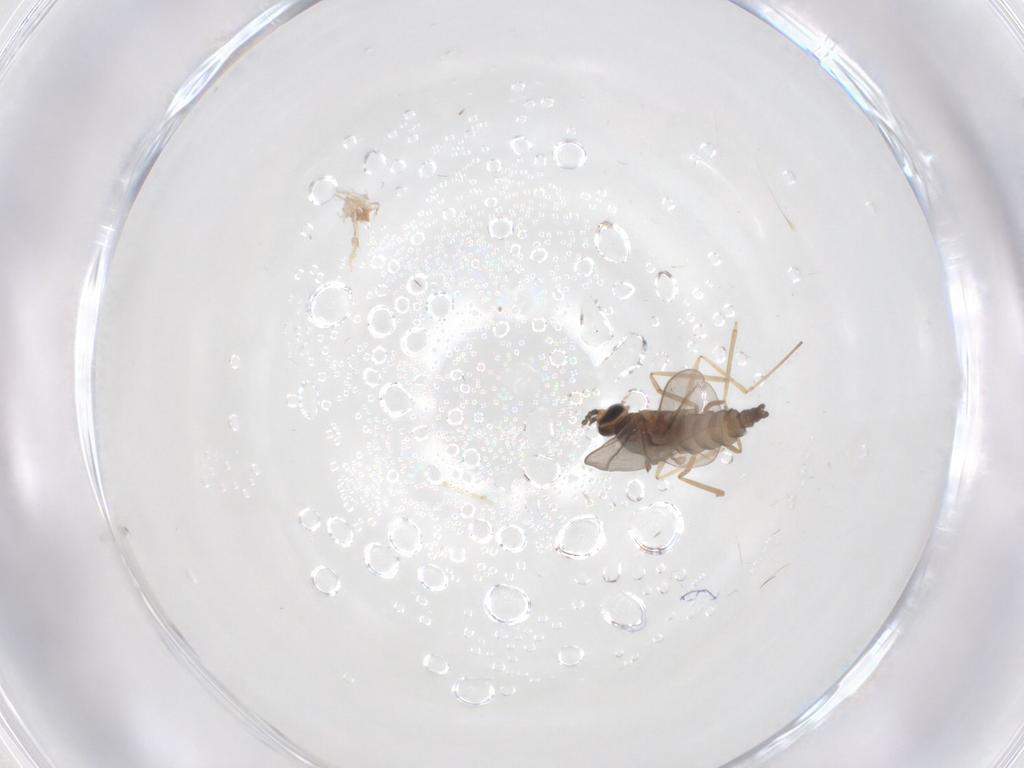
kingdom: Animalia
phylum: Arthropoda
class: Insecta
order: Diptera
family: Cecidomyiidae
